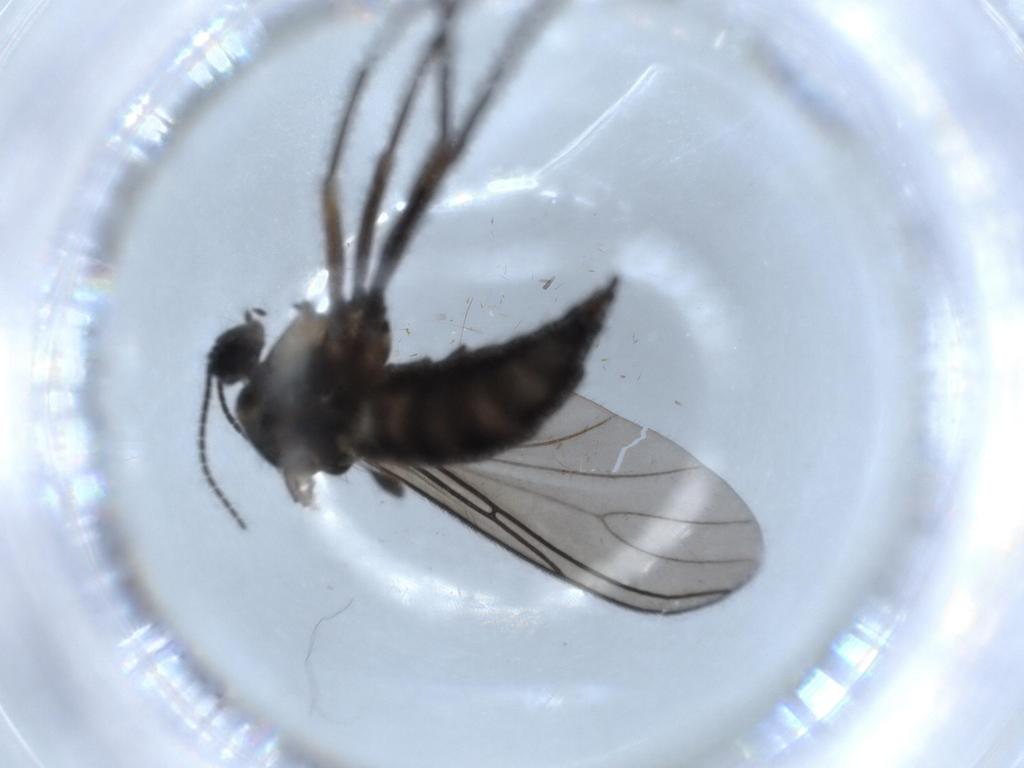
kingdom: Animalia
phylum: Arthropoda
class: Insecta
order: Diptera
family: Sciaridae
